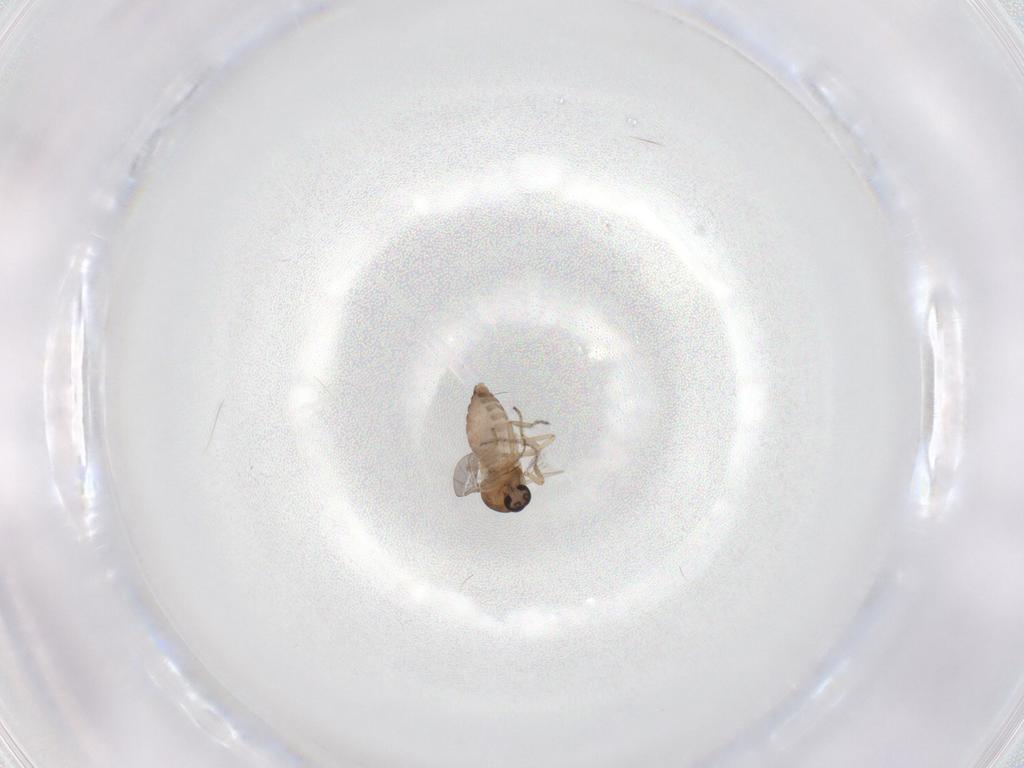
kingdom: Animalia
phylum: Arthropoda
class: Insecta
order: Diptera
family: Ceratopogonidae
